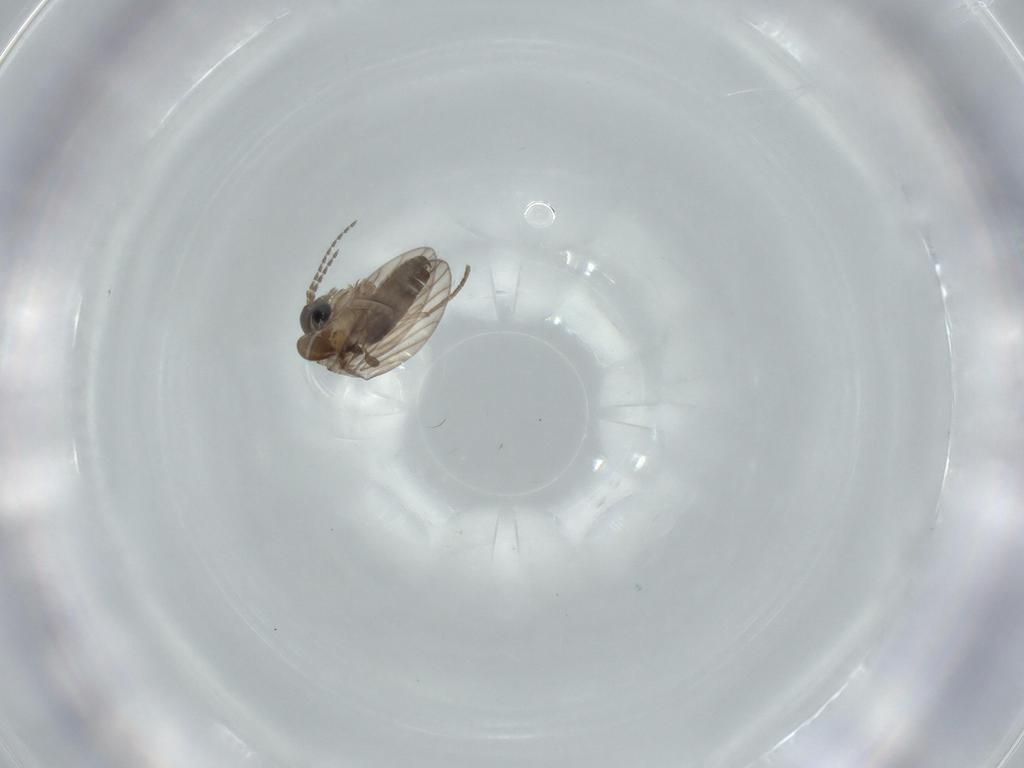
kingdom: Animalia
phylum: Arthropoda
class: Insecta
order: Diptera
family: Psychodidae
